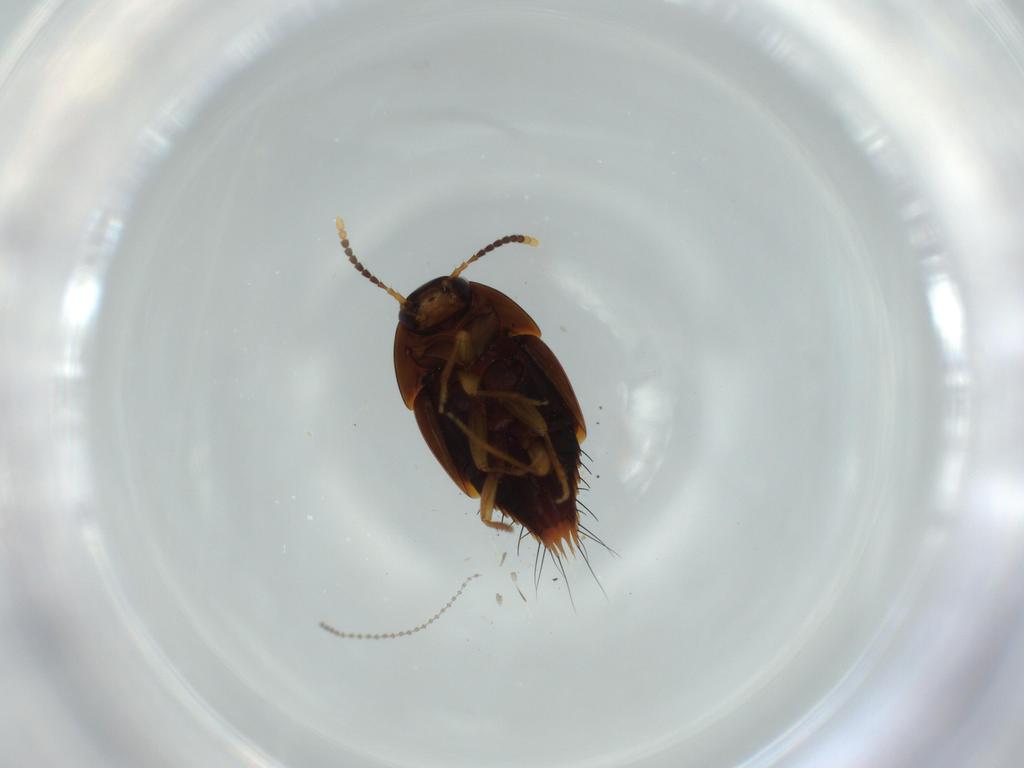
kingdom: Animalia
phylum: Arthropoda
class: Insecta
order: Coleoptera
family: Staphylinidae
